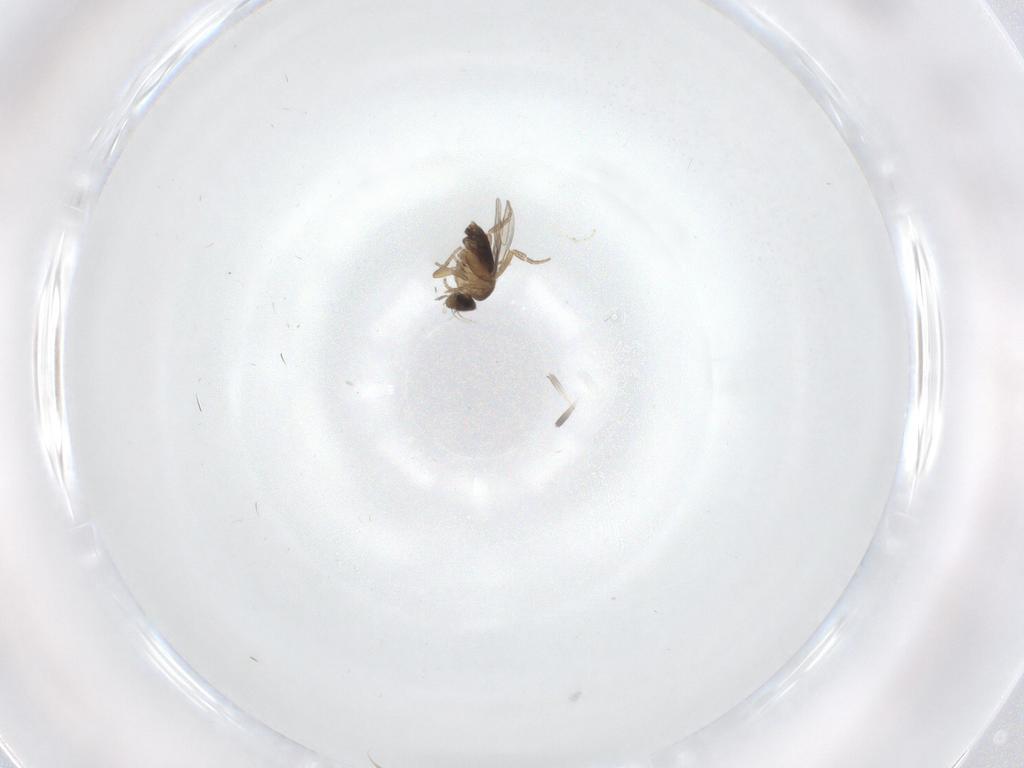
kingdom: Animalia
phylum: Arthropoda
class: Insecta
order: Diptera
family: Phoridae
